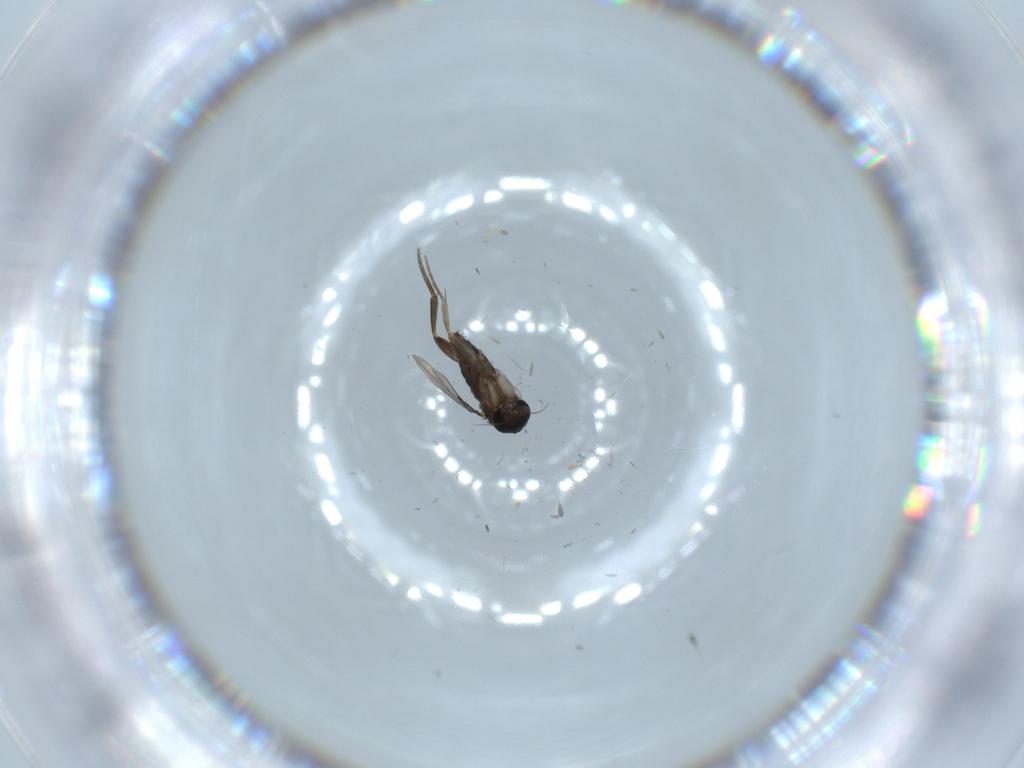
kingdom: Animalia
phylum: Arthropoda
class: Insecta
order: Diptera
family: Phoridae
